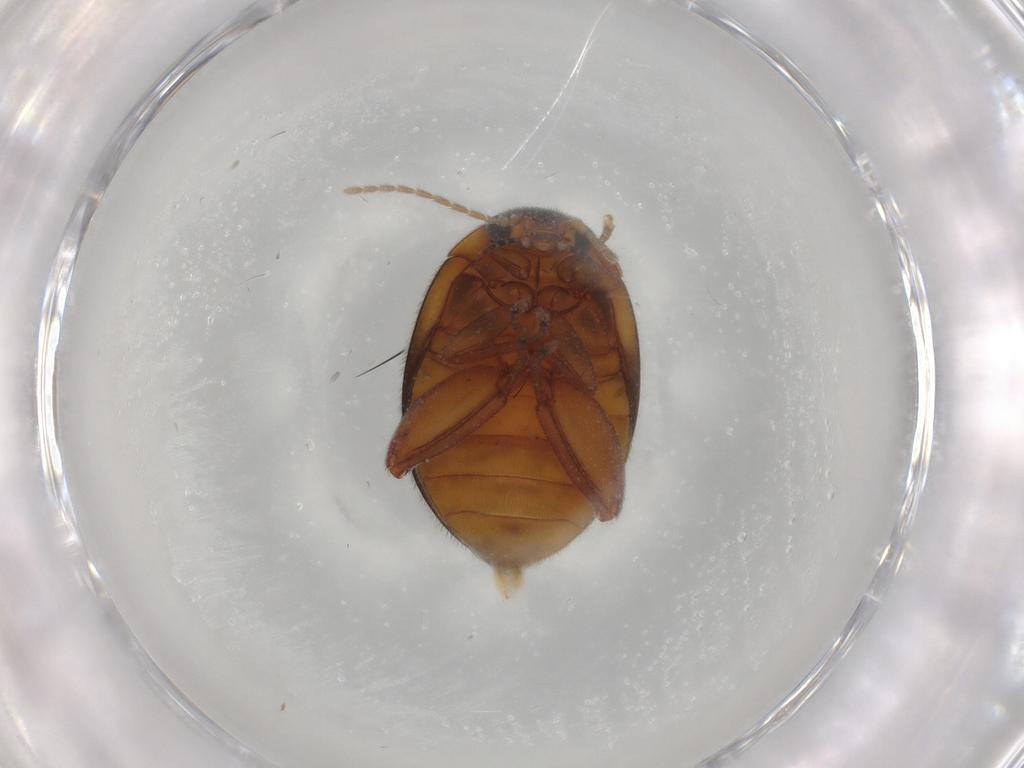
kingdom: Animalia
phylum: Arthropoda
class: Insecta
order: Coleoptera
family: Scirtidae
